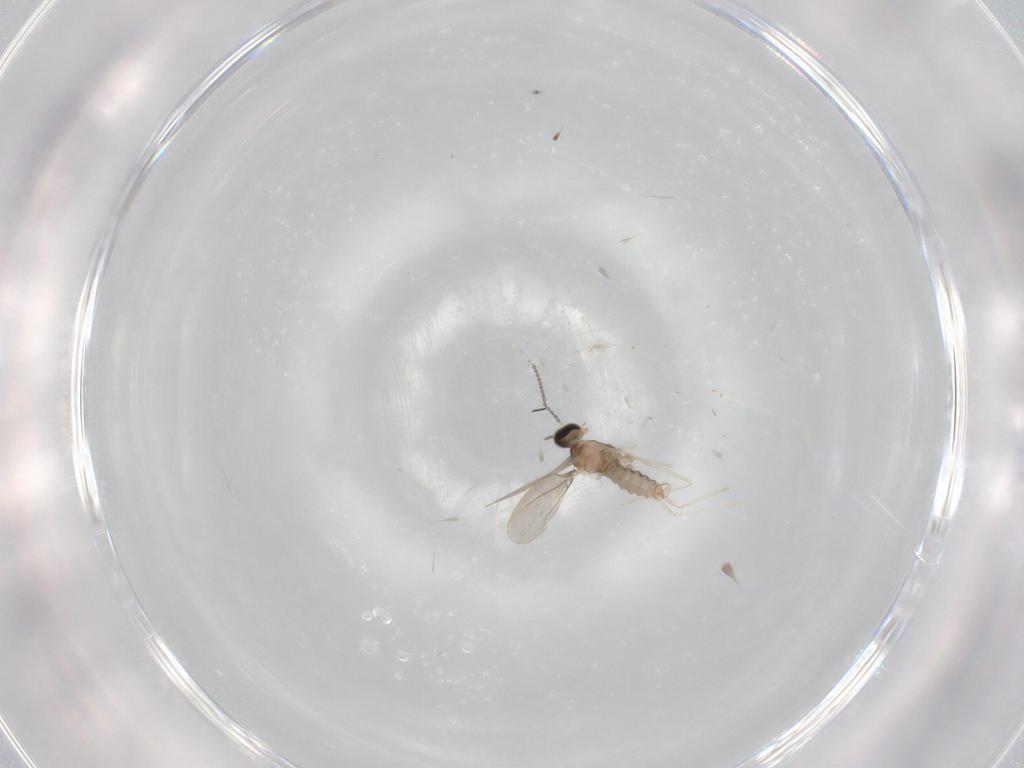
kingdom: Animalia
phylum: Arthropoda
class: Insecta
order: Diptera
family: Cecidomyiidae
